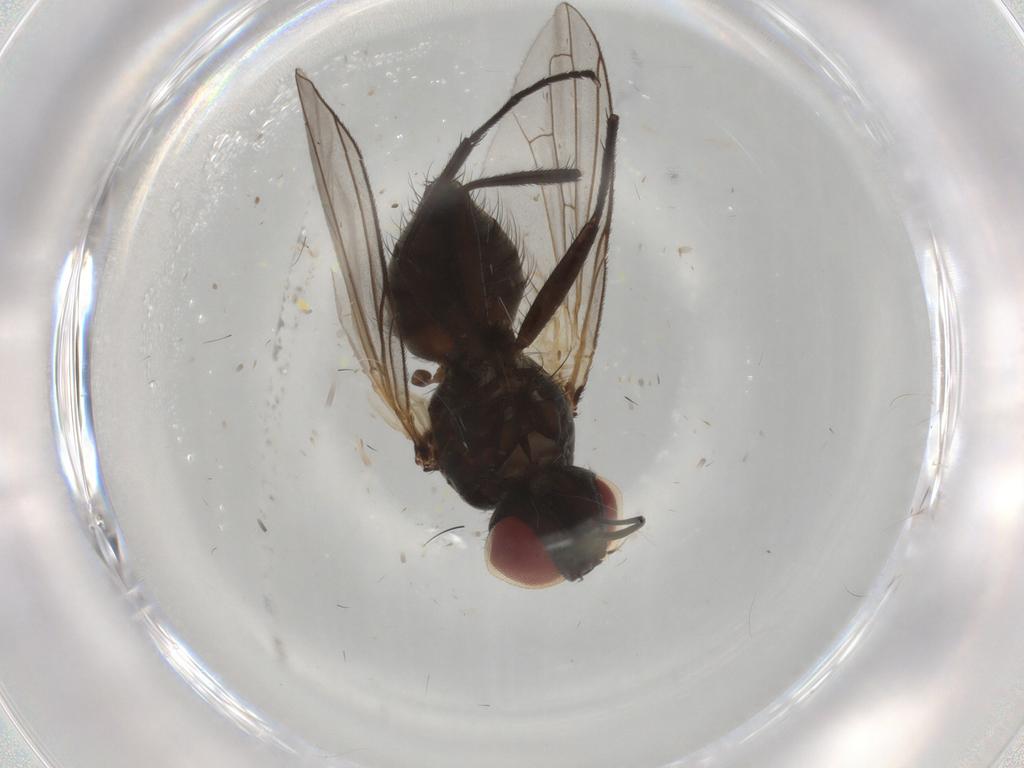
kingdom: Animalia
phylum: Arthropoda
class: Insecta
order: Diptera
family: Tachinidae
